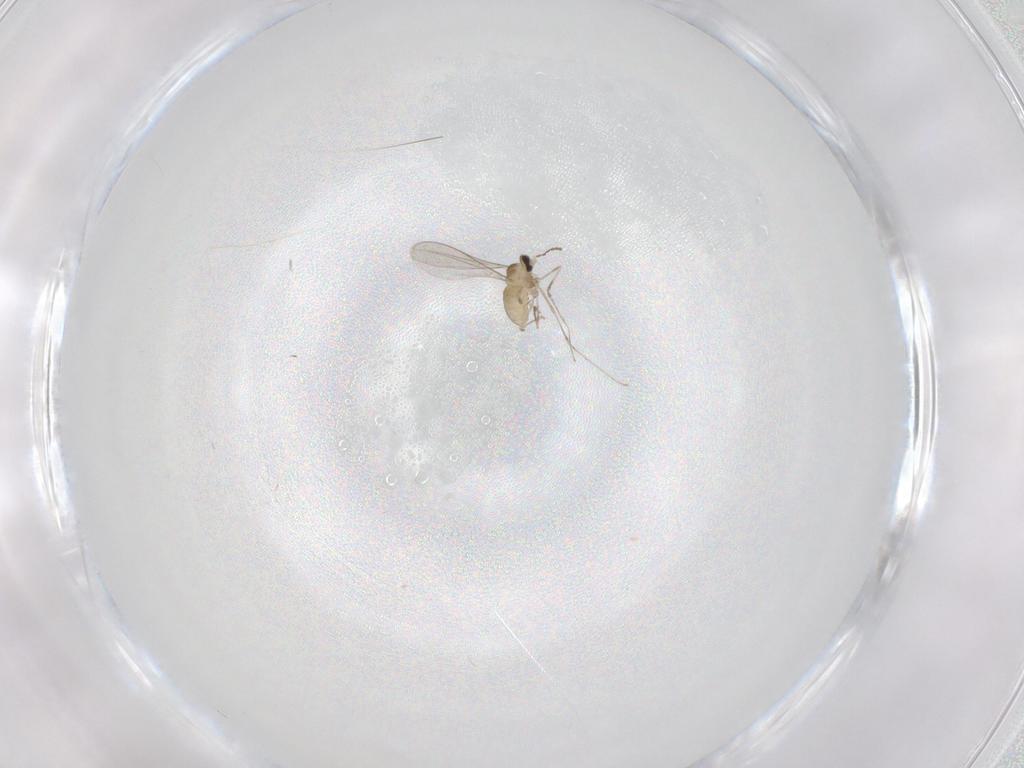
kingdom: Animalia
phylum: Arthropoda
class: Insecta
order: Diptera
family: Cecidomyiidae
